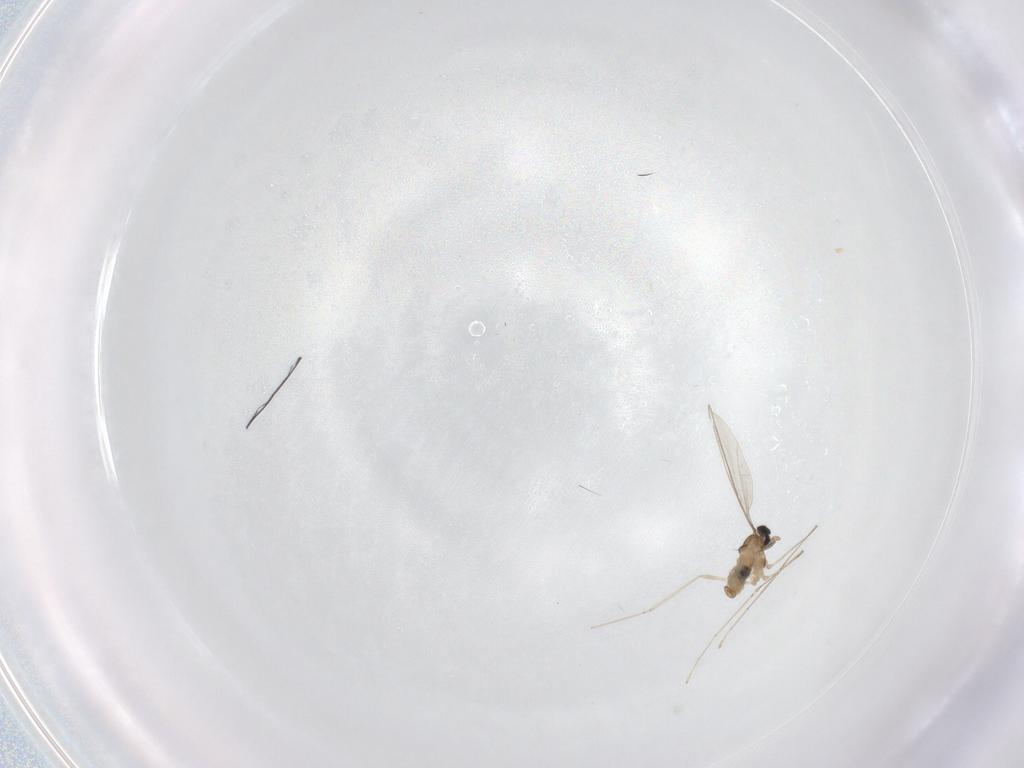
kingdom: Animalia
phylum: Arthropoda
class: Insecta
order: Diptera
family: Cecidomyiidae
